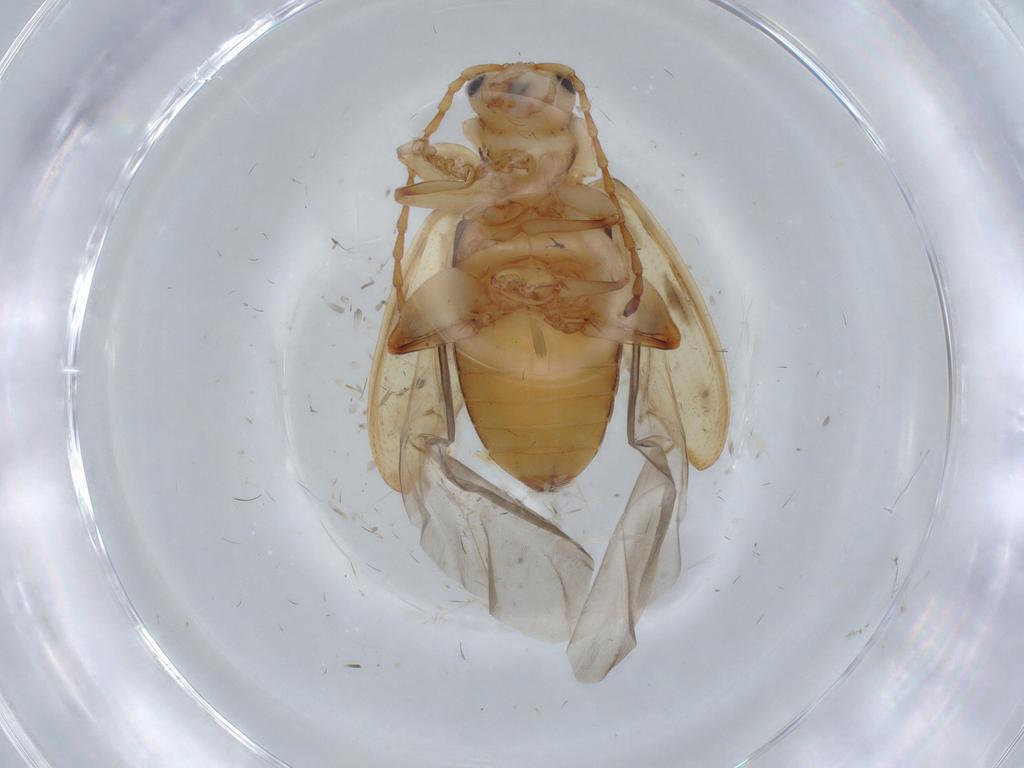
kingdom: Animalia
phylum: Arthropoda
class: Insecta
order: Coleoptera
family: Chrysomelidae
